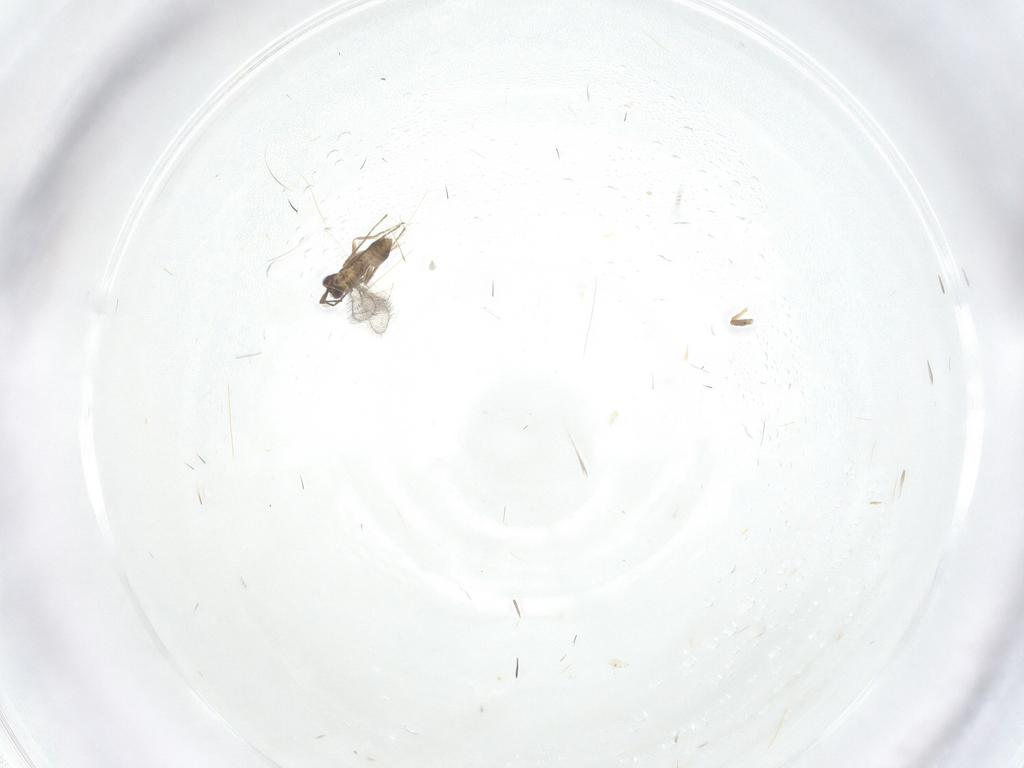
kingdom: Animalia
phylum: Arthropoda
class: Insecta
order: Hymenoptera
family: Mymaridae
